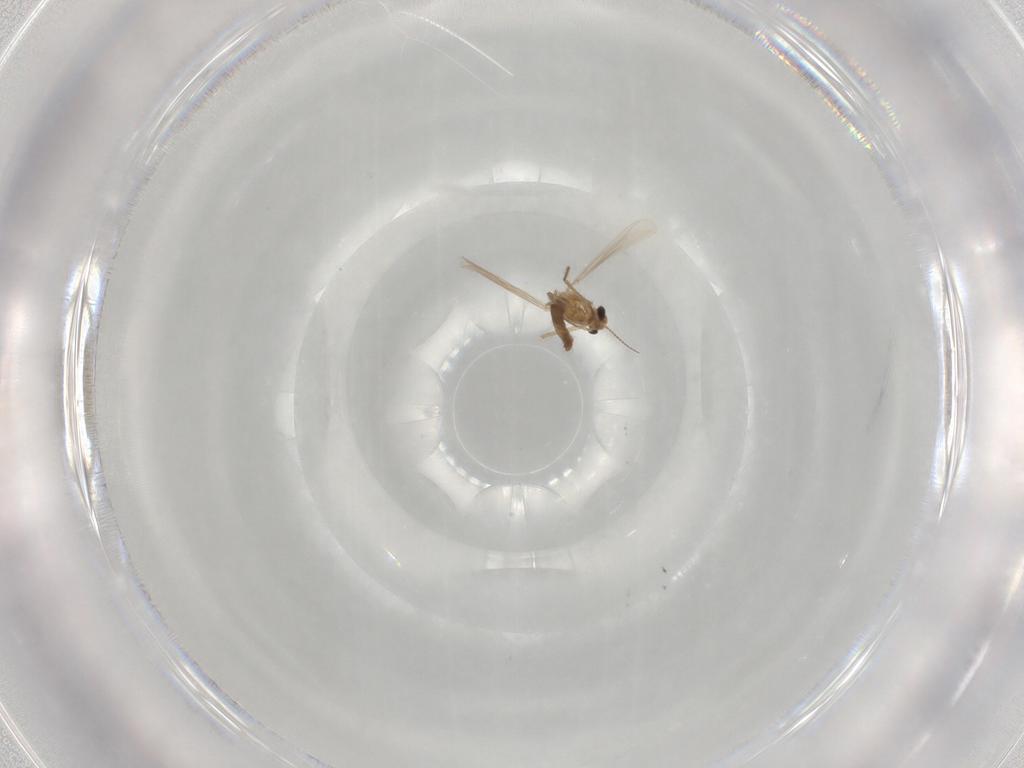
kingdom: Animalia
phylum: Arthropoda
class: Insecta
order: Diptera
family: Chironomidae
